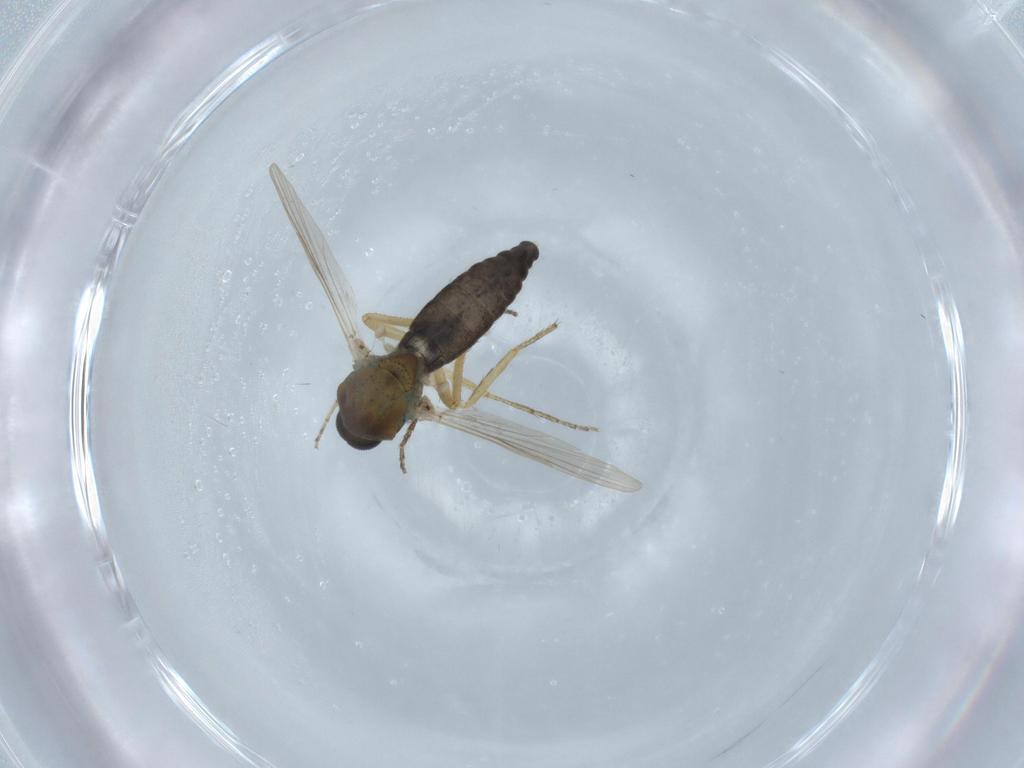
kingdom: Animalia
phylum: Arthropoda
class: Insecta
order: Diptera
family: Ceratopogonidae
